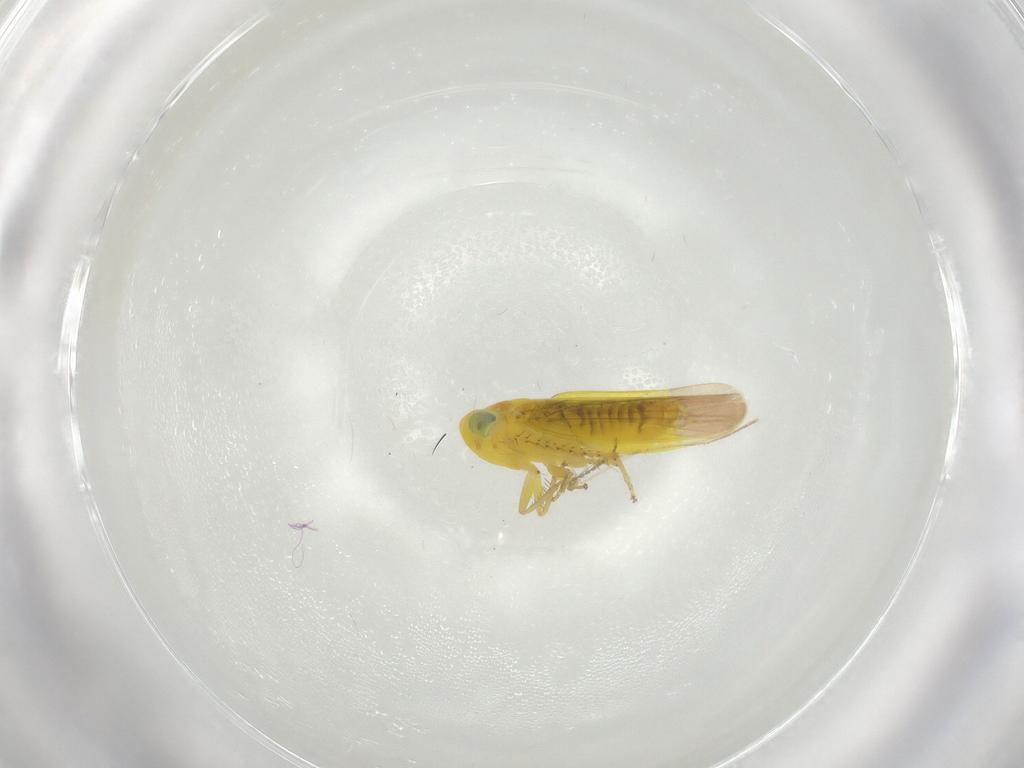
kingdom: Animalia
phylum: Arthropoda
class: Insecta
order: Hemiptera
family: Cicadellidae
